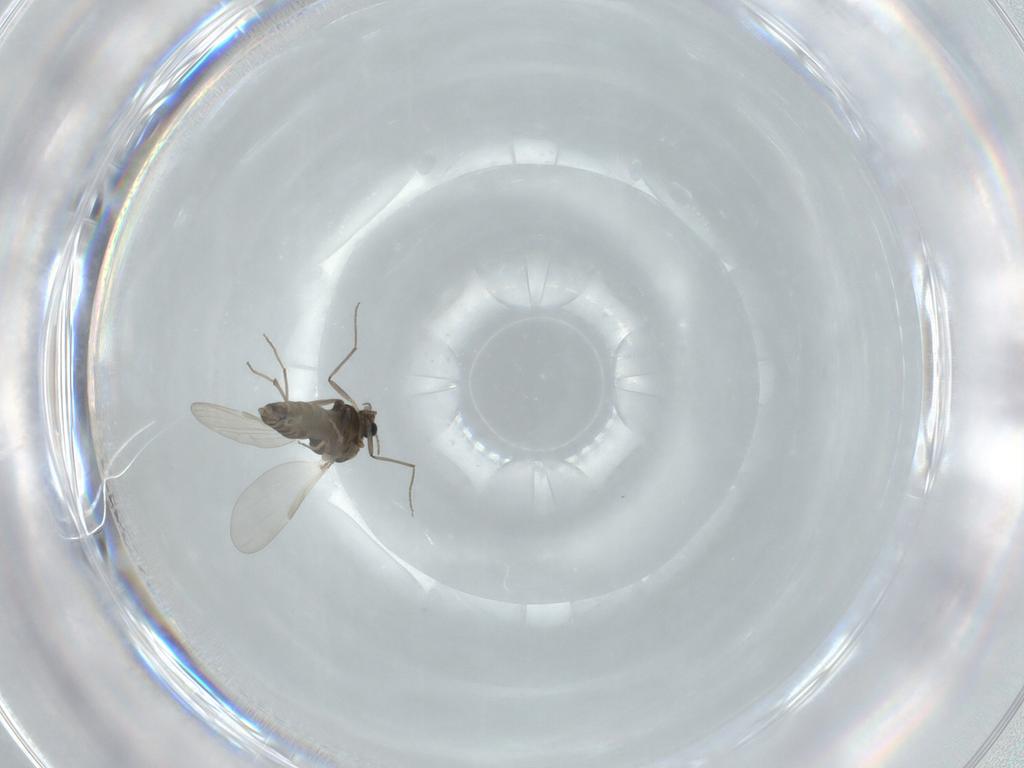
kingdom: Animalia
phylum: Arthropoda
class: Insecta
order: Diptera
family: Chironomidae
